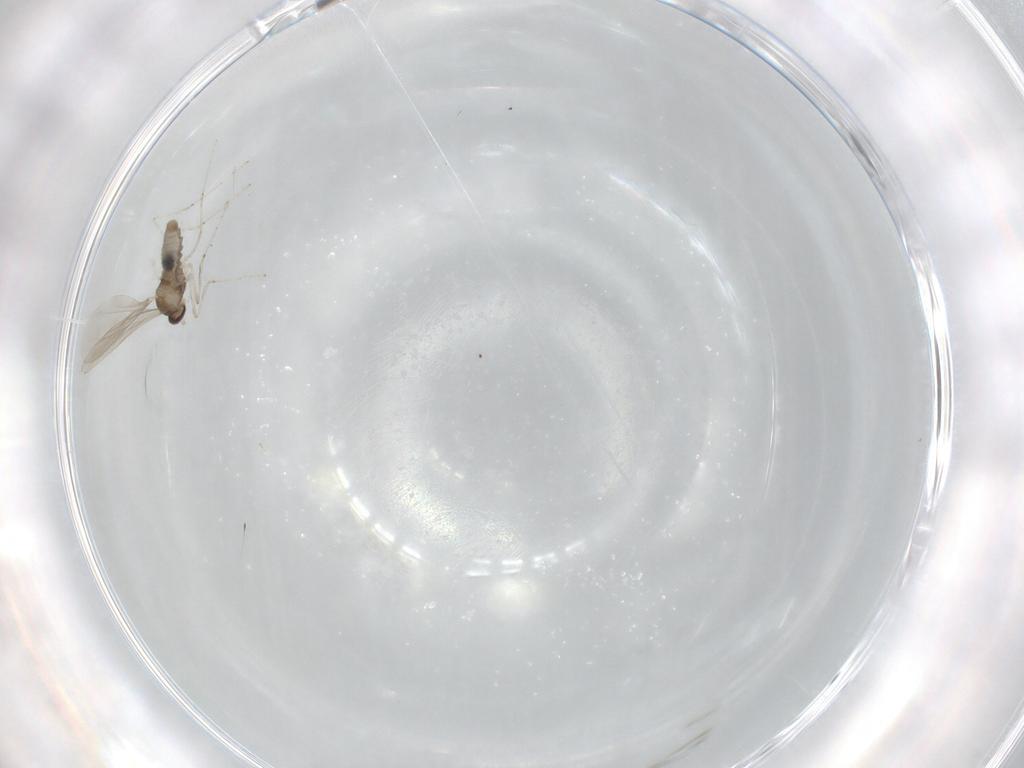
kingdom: Animalia
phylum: Arthropoda
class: Insecta
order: Diptera
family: Cecidomyiidae
